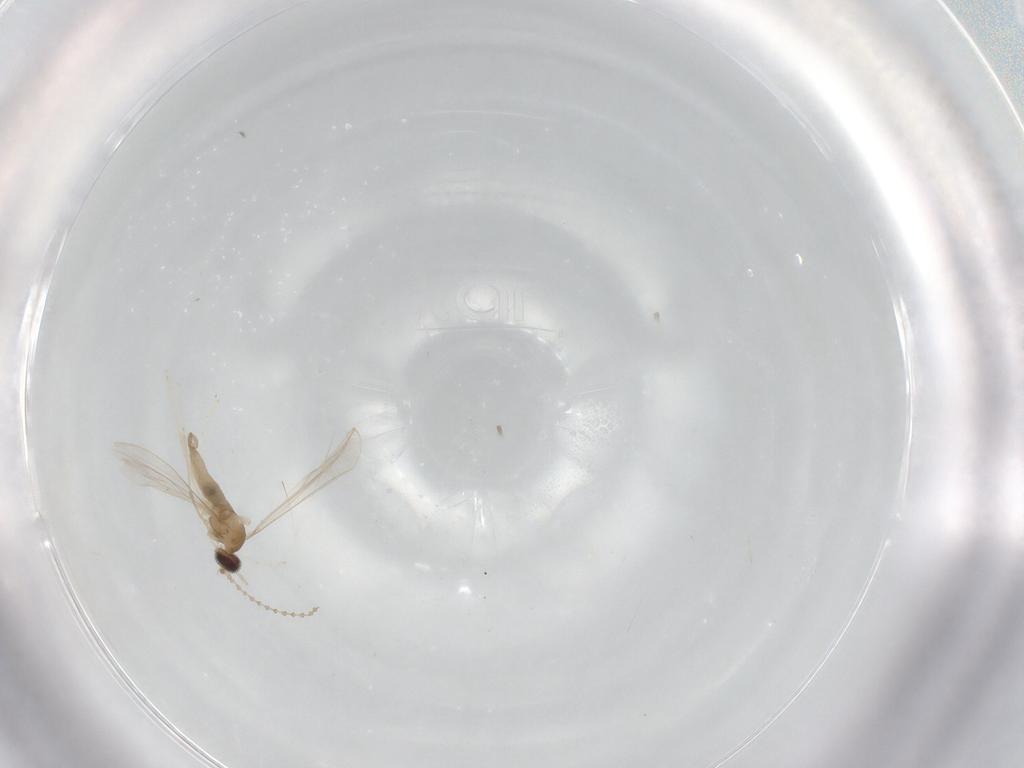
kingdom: Animalia
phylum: Arthropoda
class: Insecta
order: Diptera
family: Cecidomyiidae
